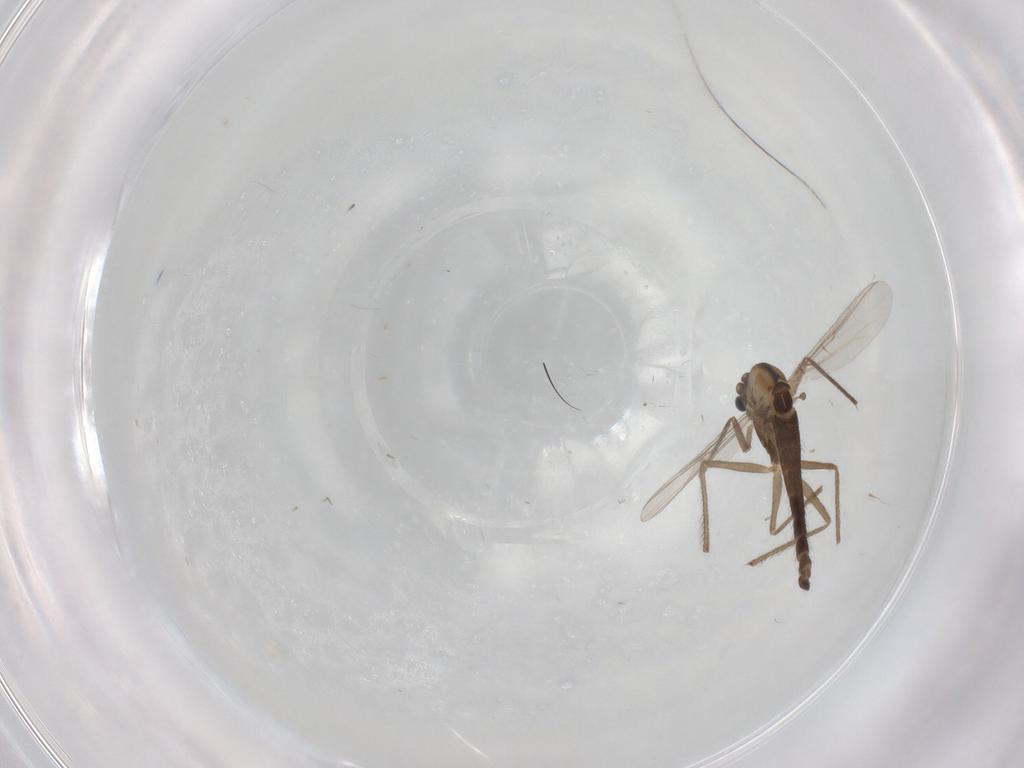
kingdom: Animalia
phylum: Arthropoda
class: Insecta
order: Diptera
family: Chironomidae
